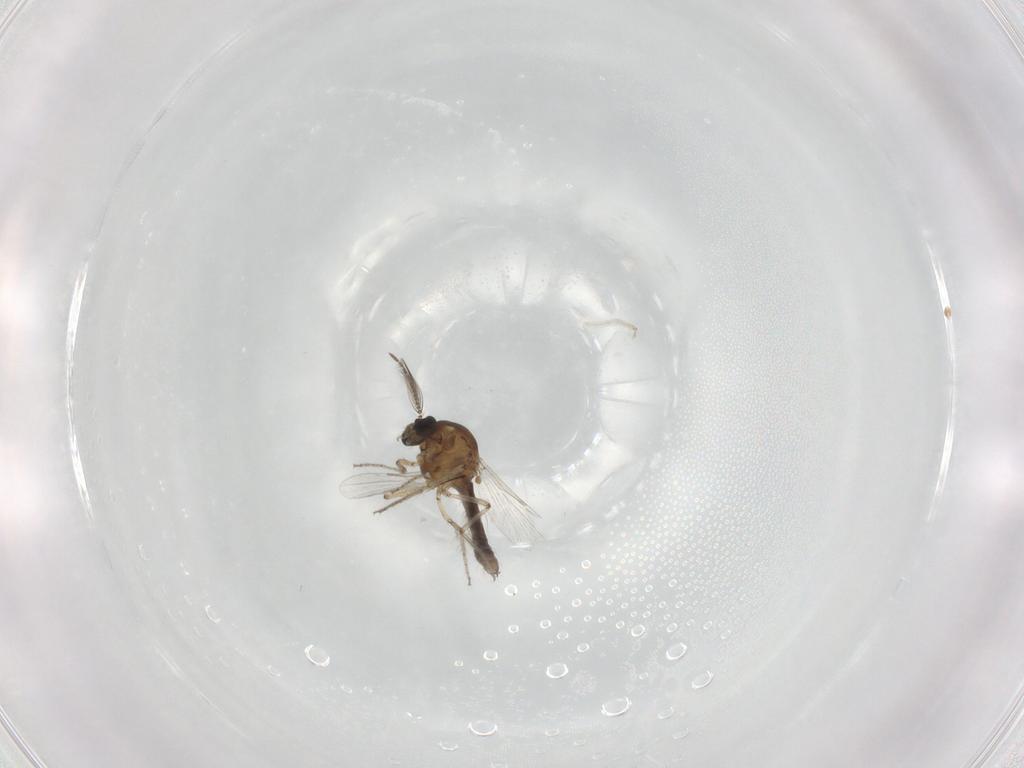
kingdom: Animalia
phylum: Arthropoda
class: Insecta
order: Diptera
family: Ceratopogonidae
